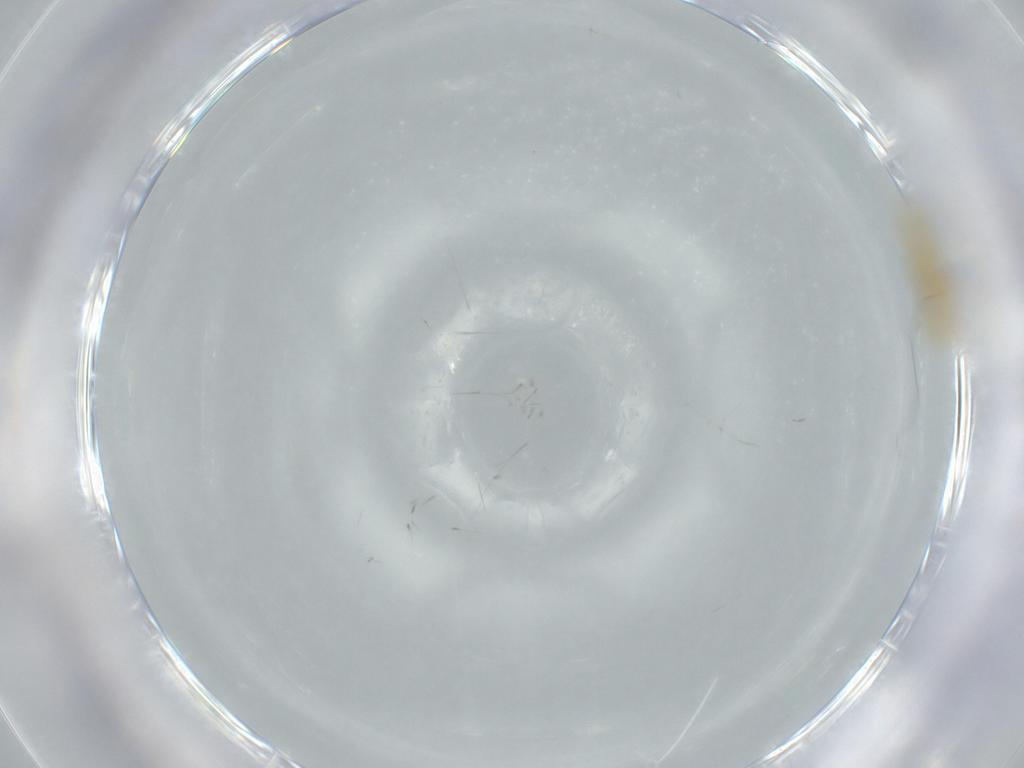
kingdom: Animalia
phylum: Arthropoda
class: Insecta
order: Hemiptera
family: Cicadellidae
